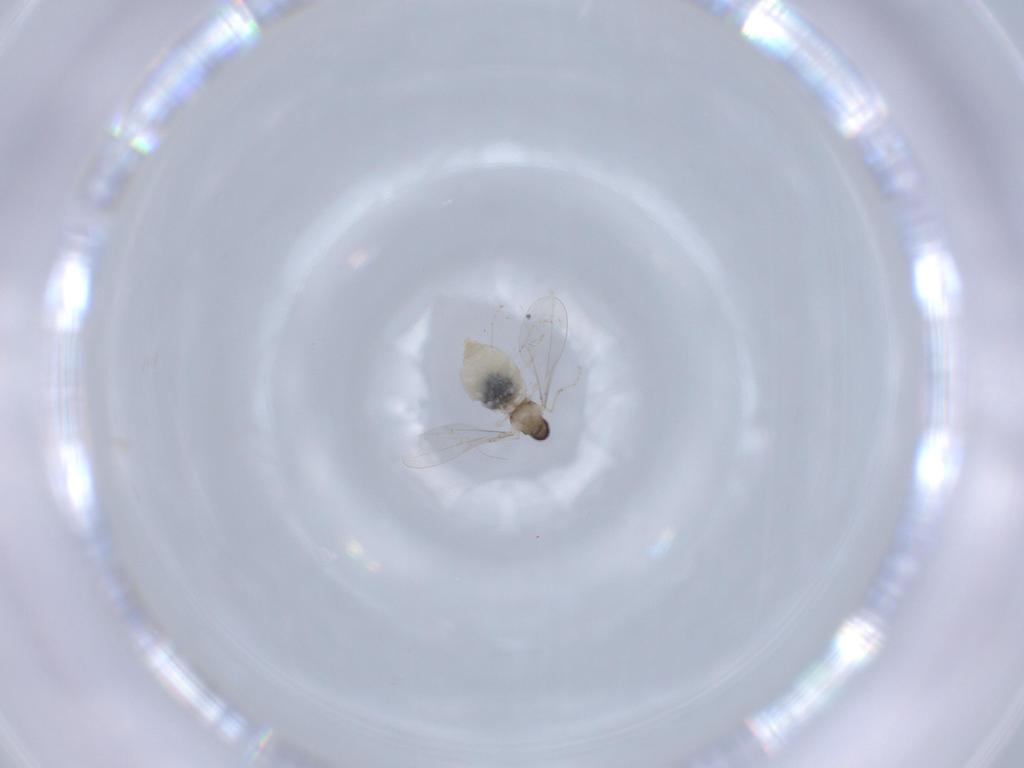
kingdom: Animalia
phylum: Arthropoda
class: Insecta
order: Diptera
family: Cecidomyiidae
